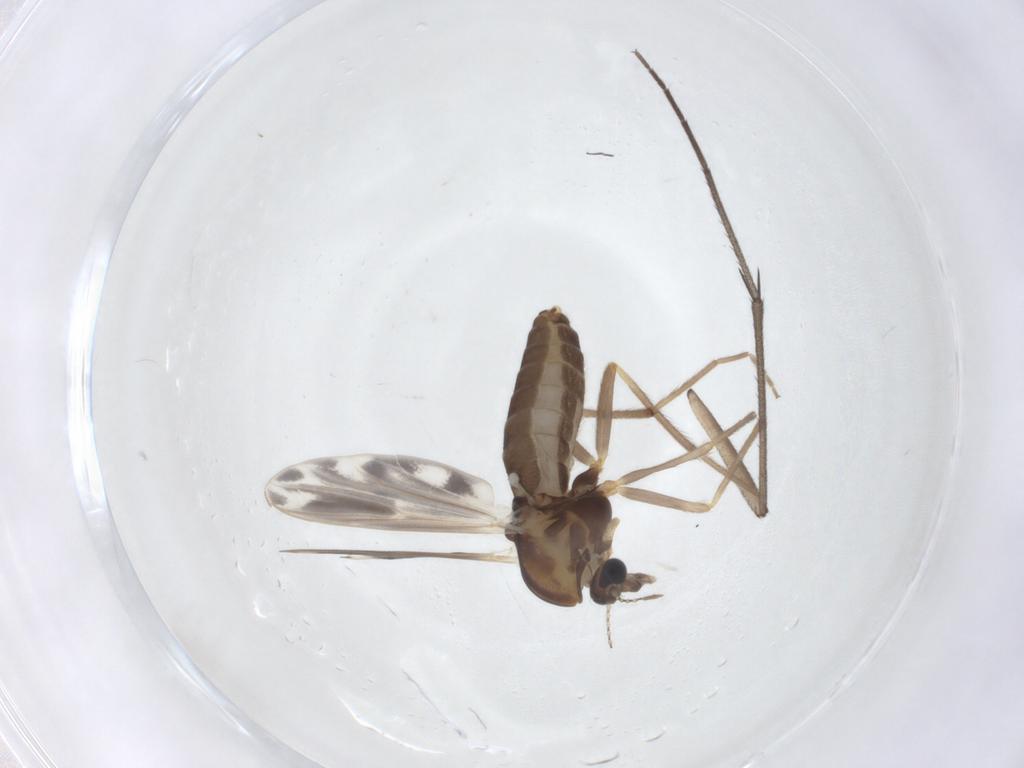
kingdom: Animalia
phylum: Arthropoda
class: Insecta
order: Diptera
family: Chironomidae
